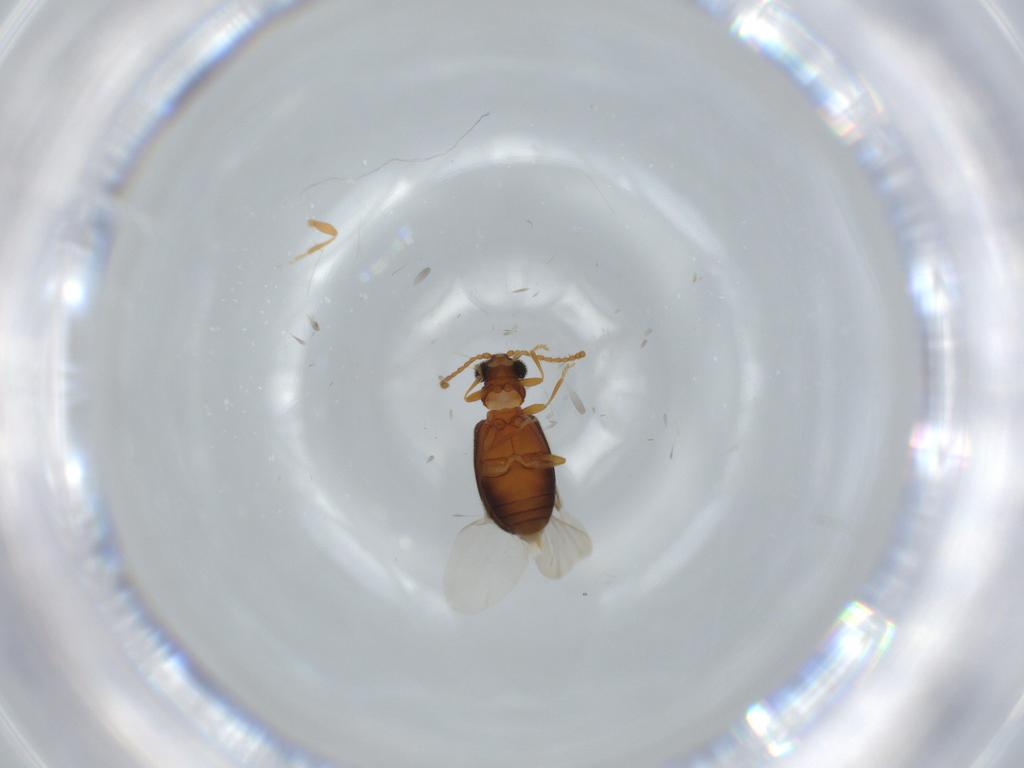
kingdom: Animalia
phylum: Arthropoda
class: Insecta
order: Coleoptera
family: Aderidae
